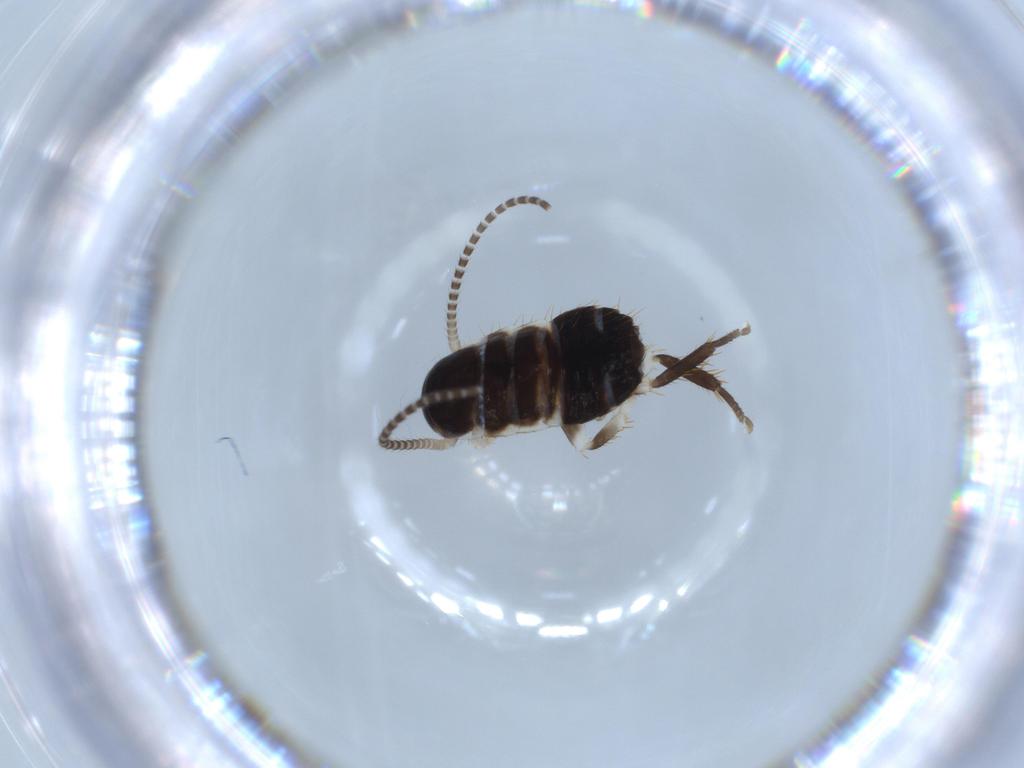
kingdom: Animalia
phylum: Arthropoda
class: Insecta
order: Blattodea
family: Ectobiidae
